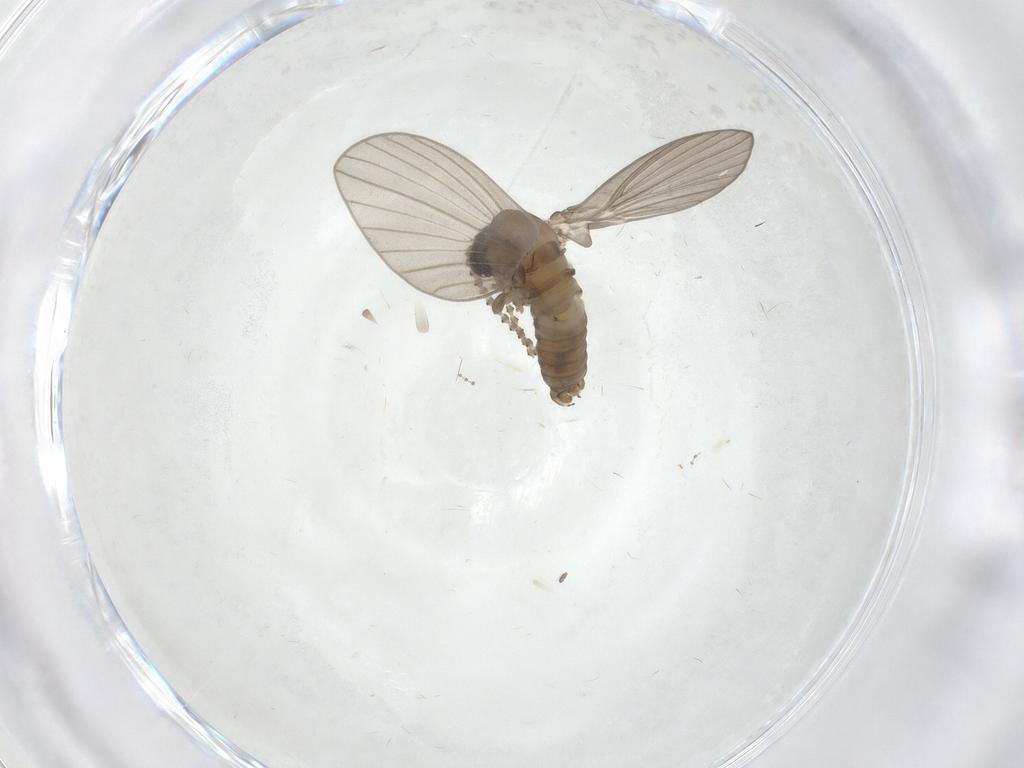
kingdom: Animalia
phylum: Arthropoda
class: Insecta
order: Diptera
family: Psychodidae
